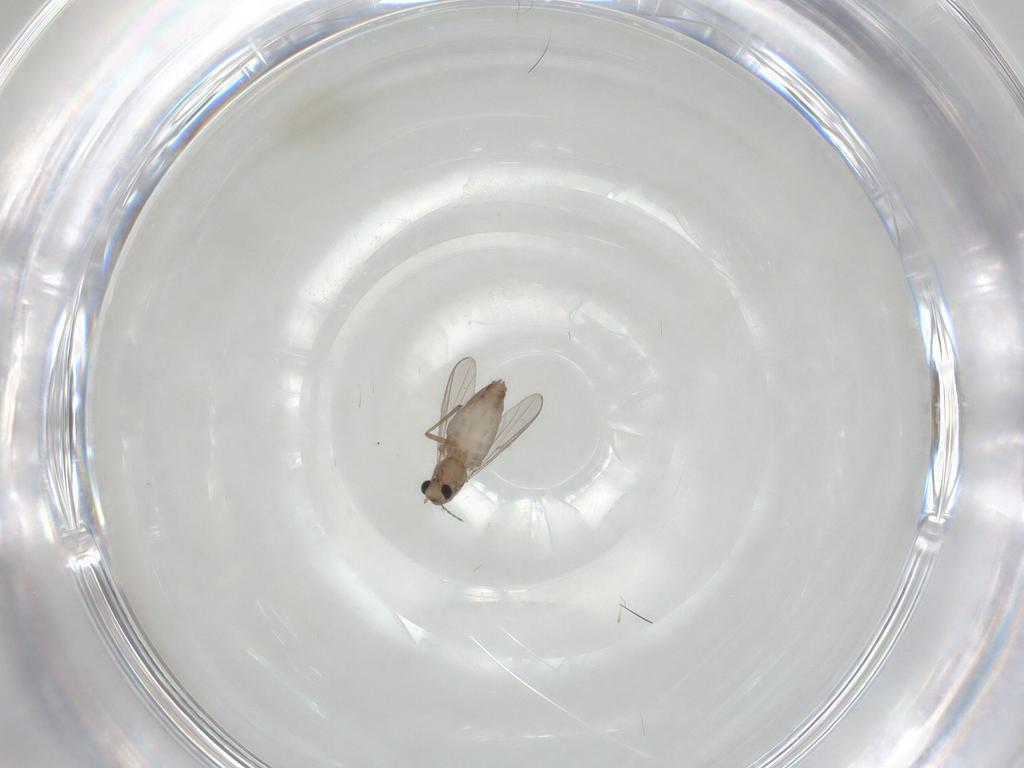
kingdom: Animalia
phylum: Arthropoda
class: Insecta
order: Diptera
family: Chironomidae
